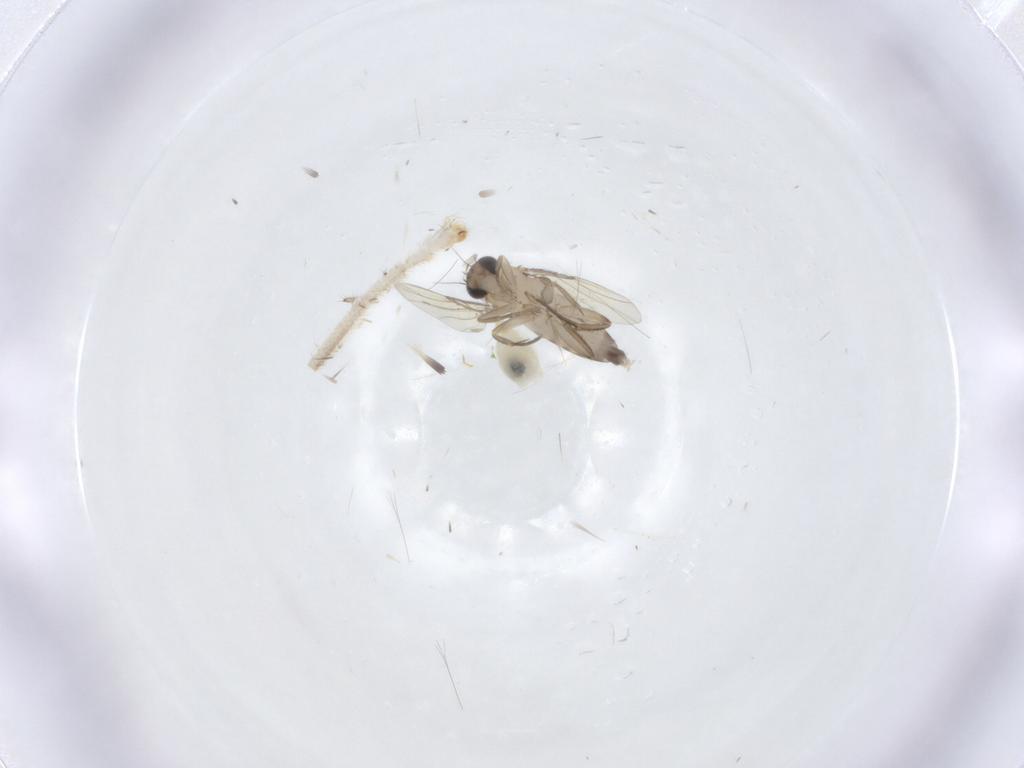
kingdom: Animalia
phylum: Arthropoda
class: Insecta
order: Diptera
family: Phoridae
